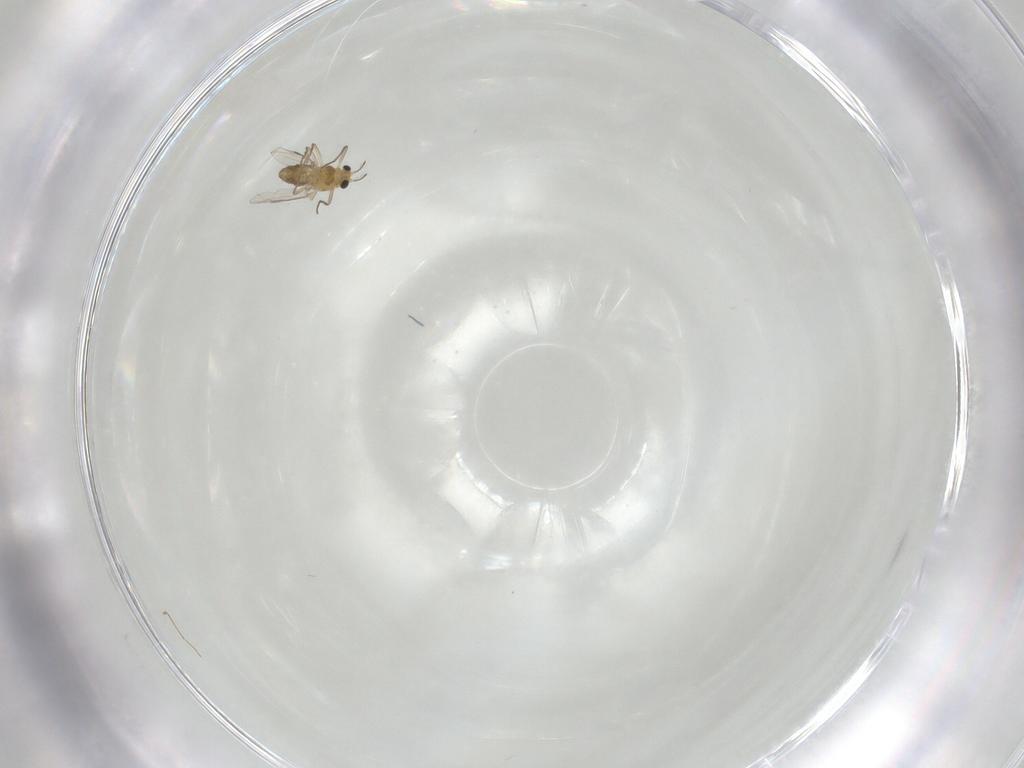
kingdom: Animalia
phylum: Arthropoda
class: Insecta
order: Diptera
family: Chironomidae
